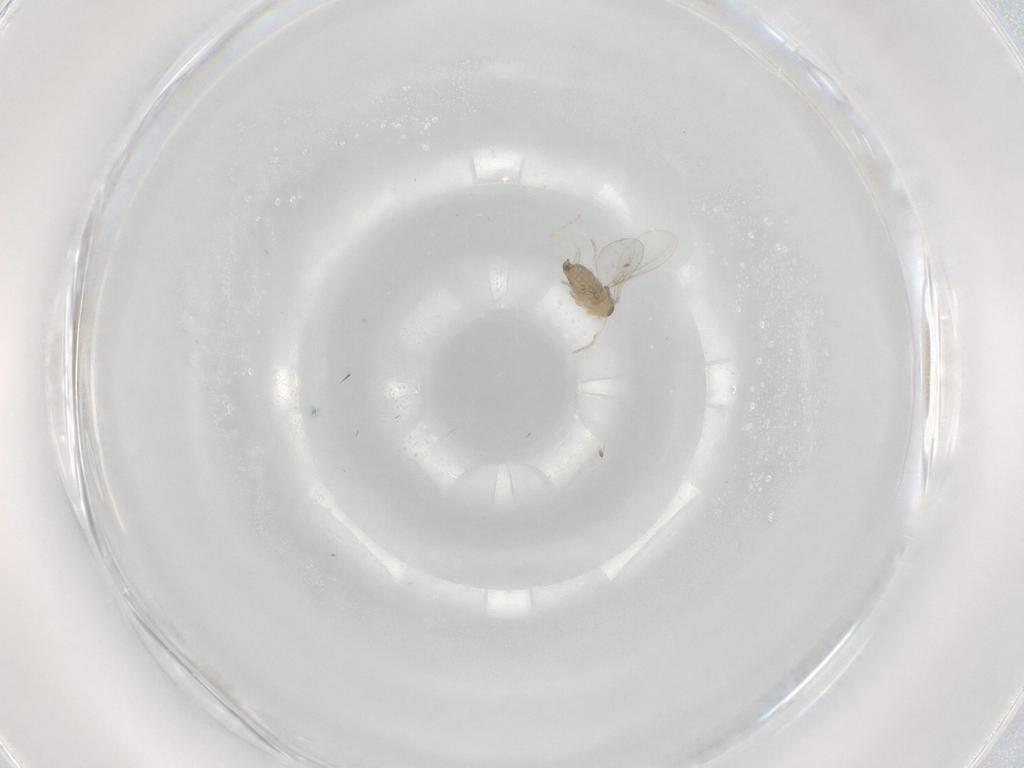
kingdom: Animalia
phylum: Arthropoda
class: Insecta
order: Diptera
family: Cecidomyiidae
